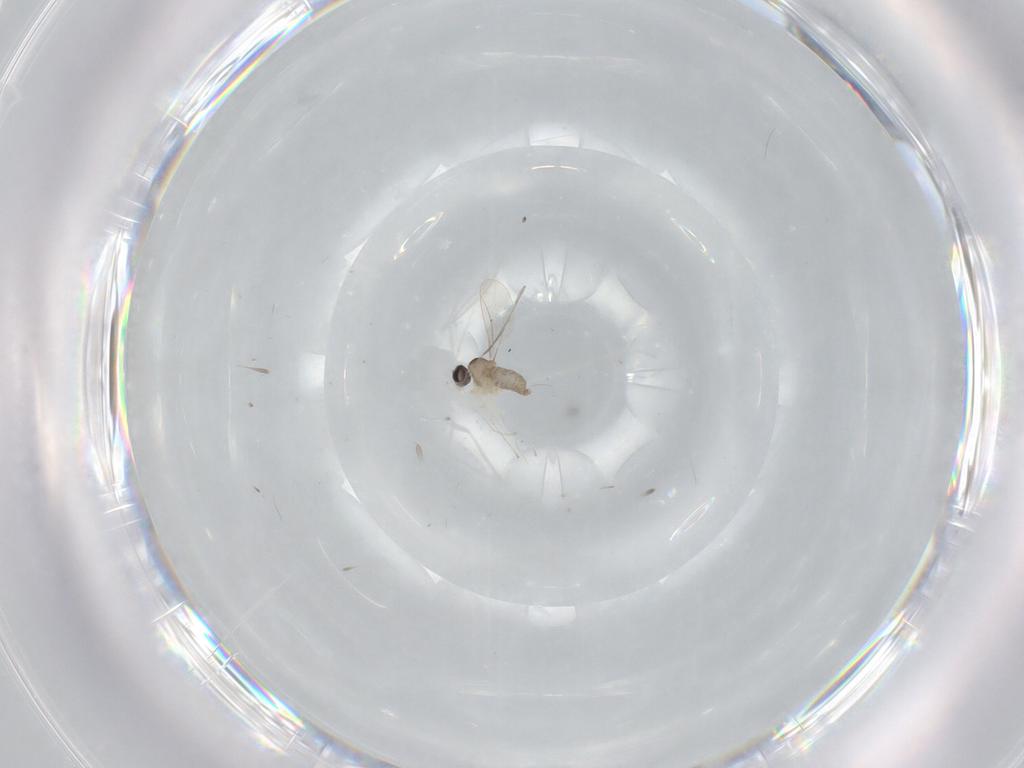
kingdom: Animalia
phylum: Arthropoda
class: Insecta
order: Diptera
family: Cecidomyiidae
